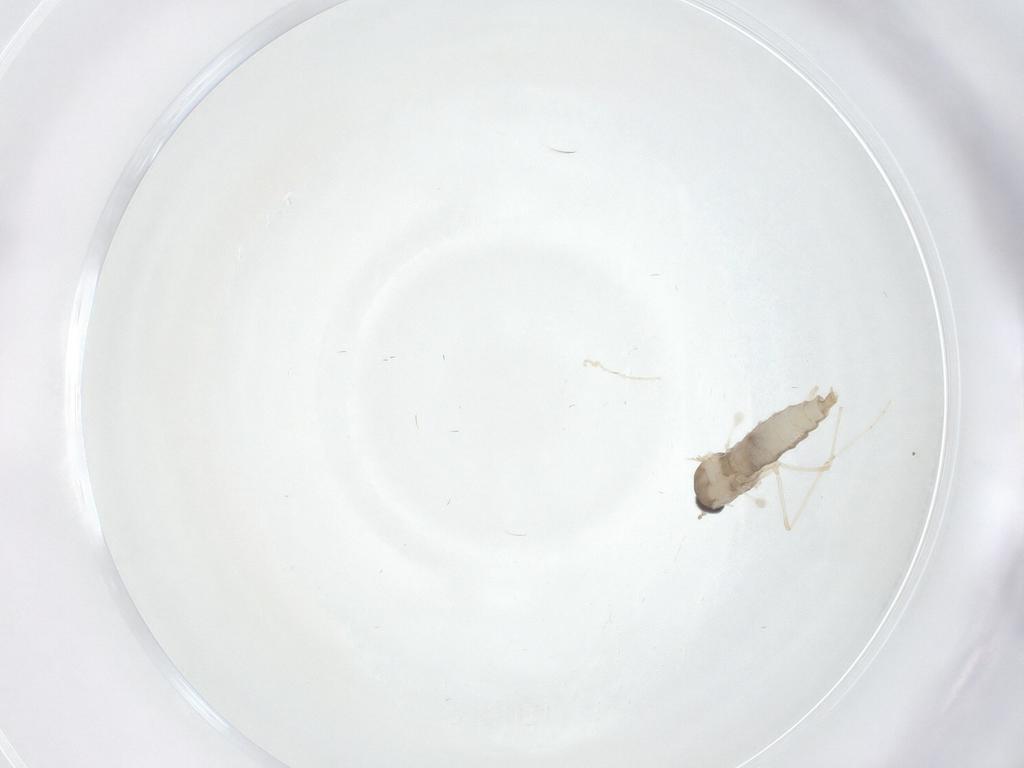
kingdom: Animalia
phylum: Arthropoda
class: Insecta
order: Diptera
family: Cecidomyiidae
